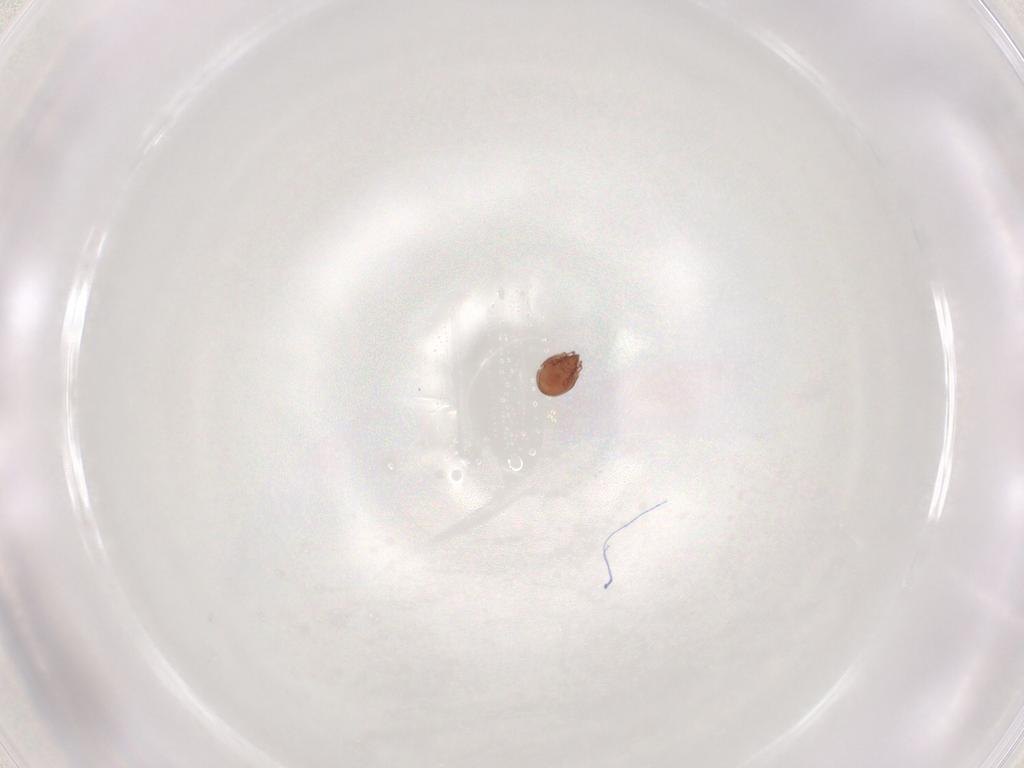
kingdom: Animalia
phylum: Arthropoda
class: Arachnida
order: Sarcoptiformes
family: Scheloribatidae
